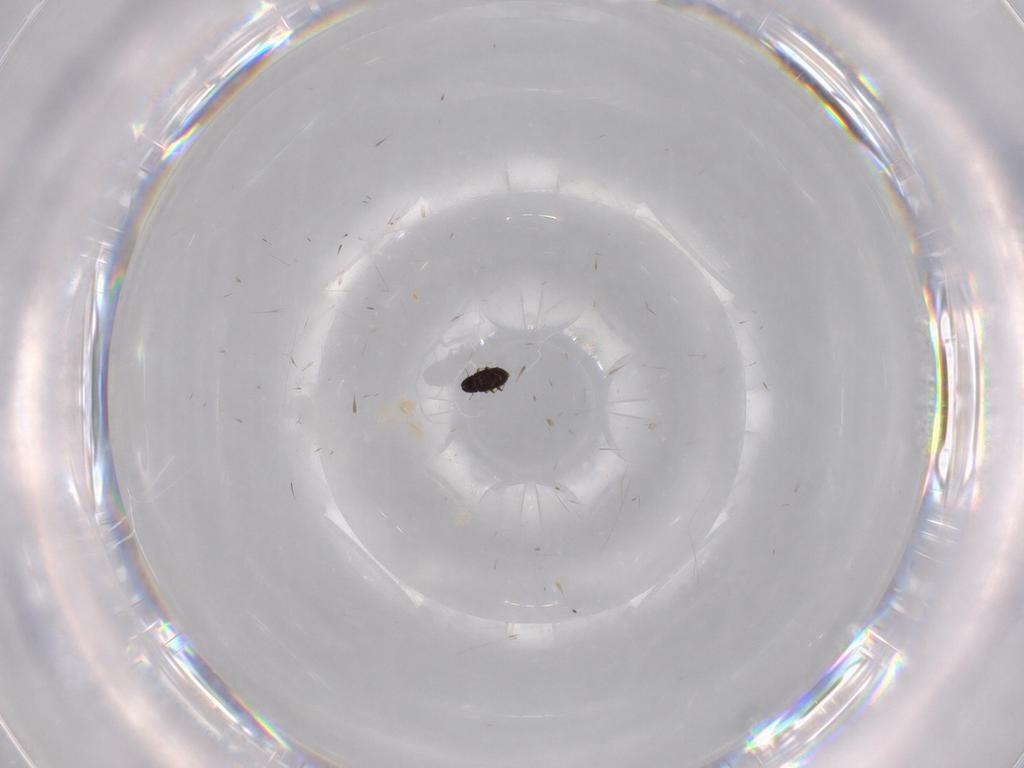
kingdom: Animalia
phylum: Arthropoda
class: Insecta
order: Psocodea
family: Caeciliusidae
